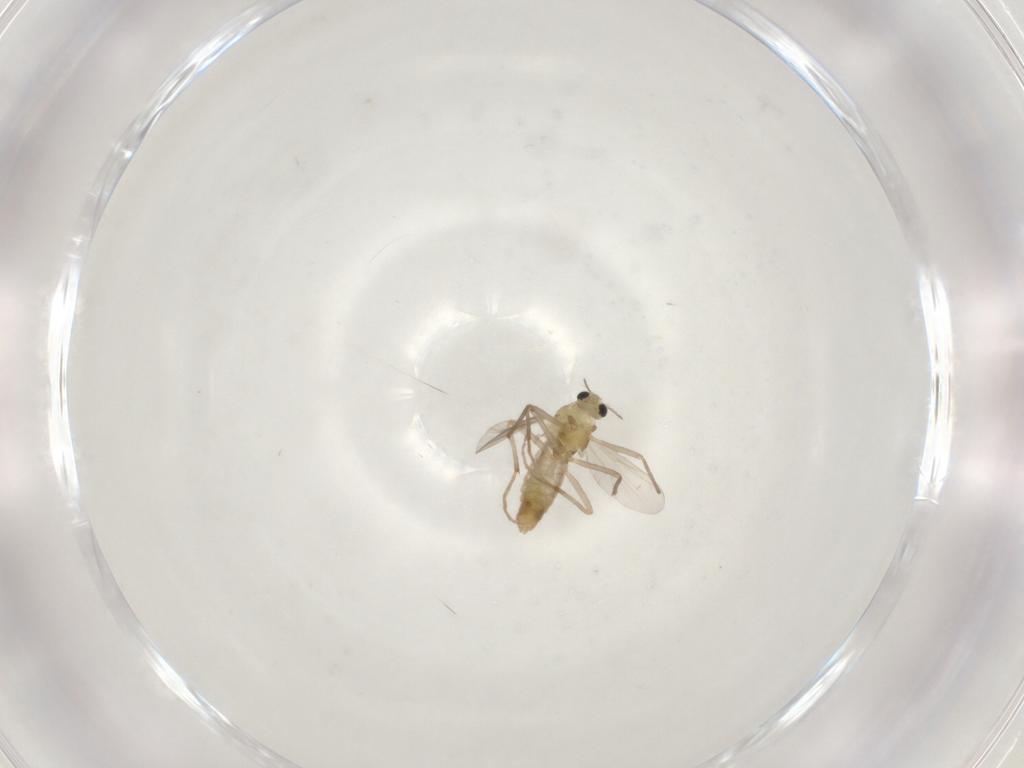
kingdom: Animalia
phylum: Arthropoda
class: Insecta
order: Diptera
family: Chironomidae
